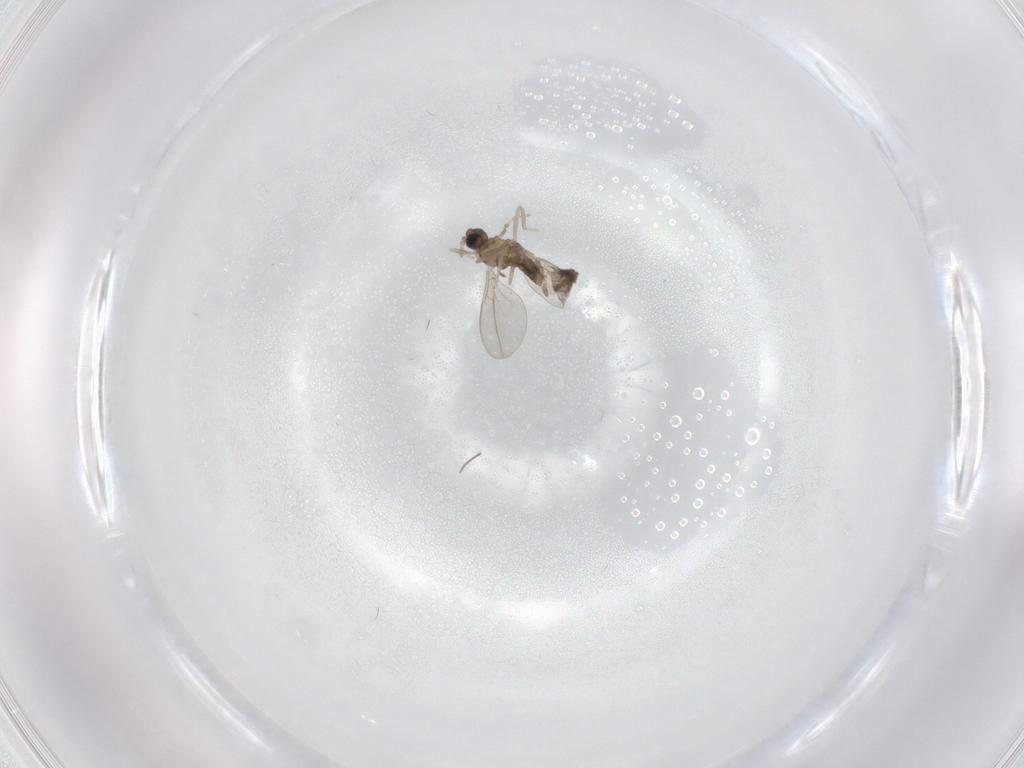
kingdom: Animalia
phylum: Arthropoda
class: Insecta
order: Diptera
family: Cecidomyiidae
